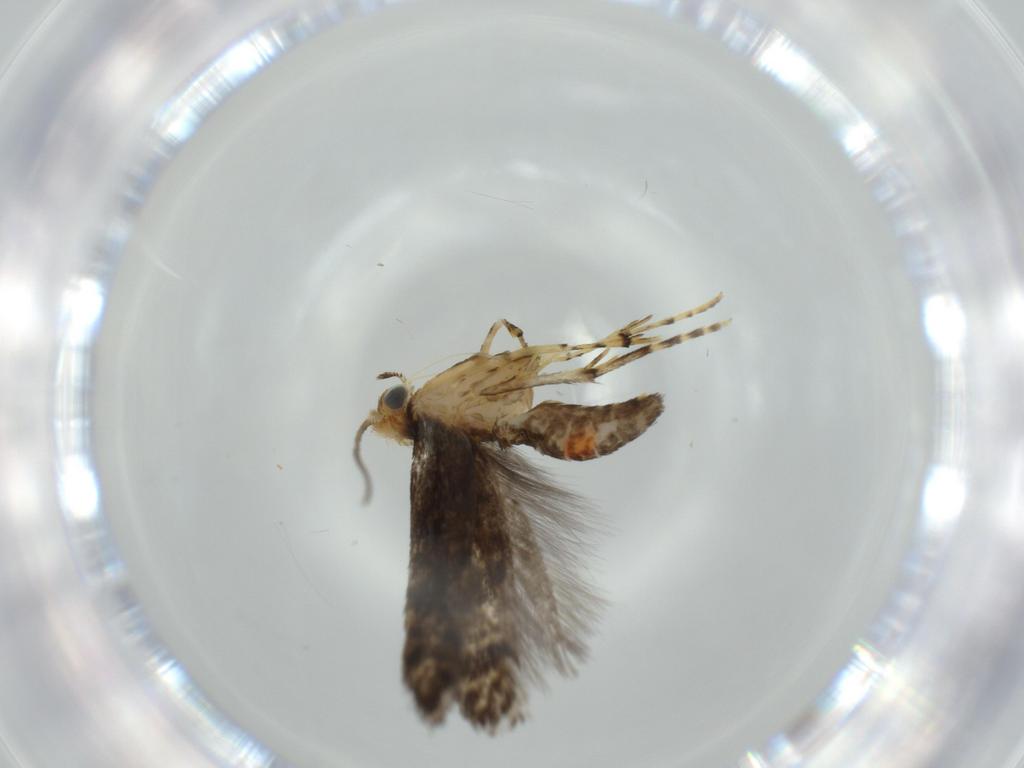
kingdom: Animalia
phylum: Arthropoda
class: Insecta
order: Lepidoptera
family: Argyresthiidae
